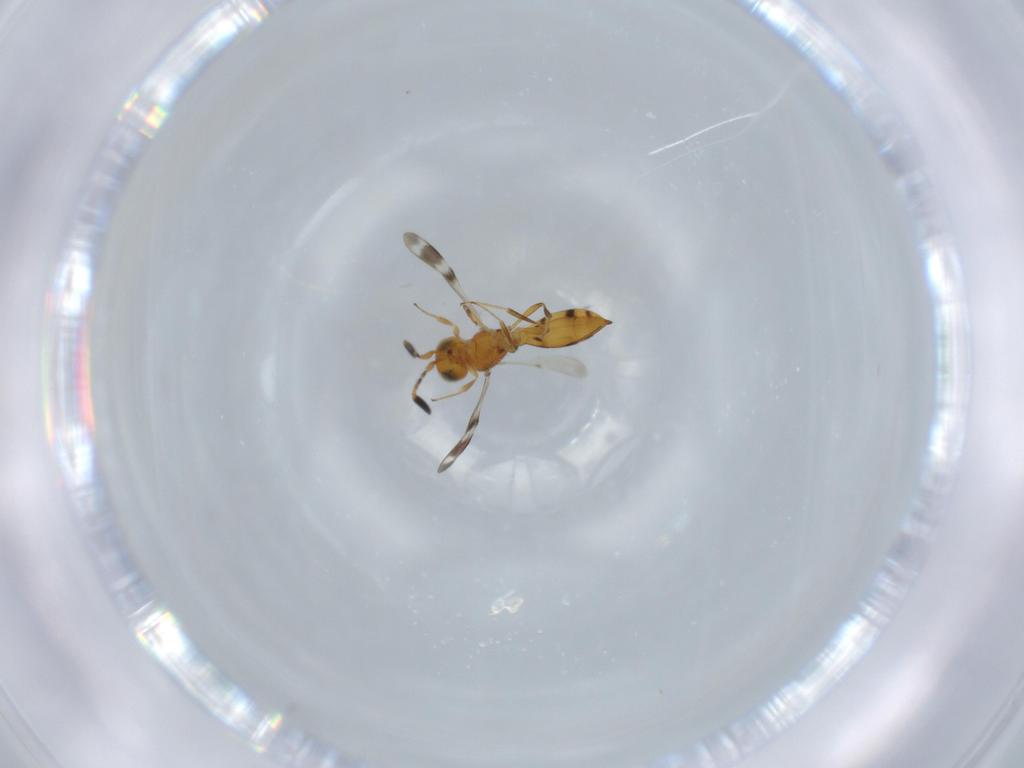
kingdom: Animalia
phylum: Arthropoda
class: Insecta
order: Hymenoptera
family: Scelionidae
